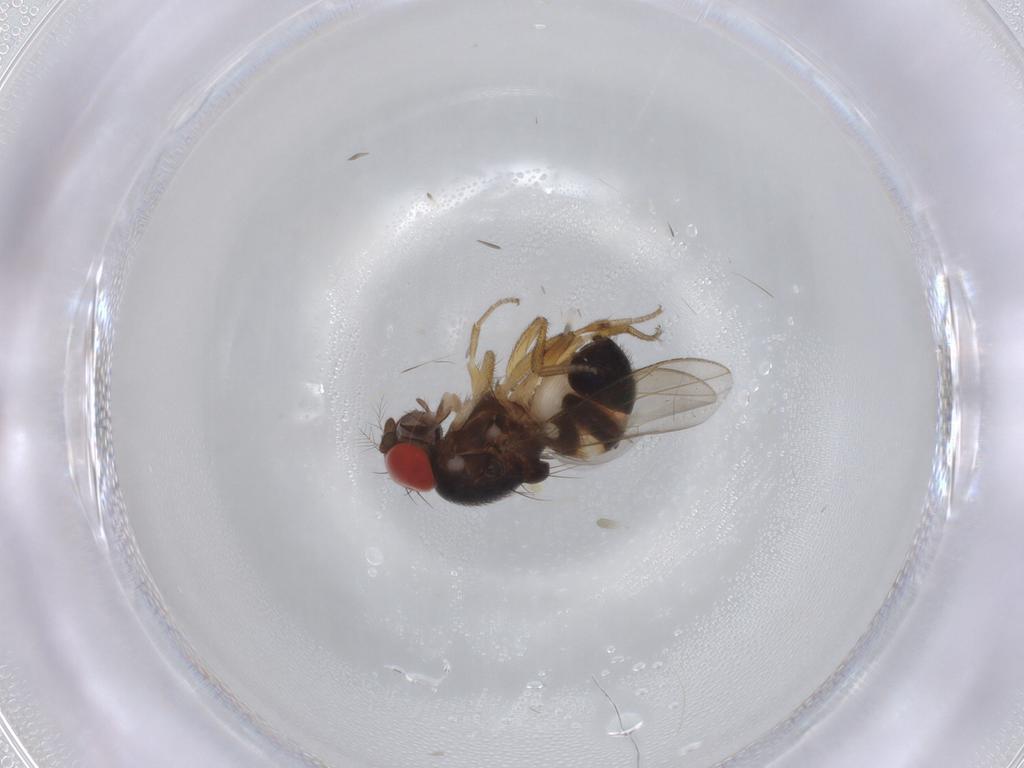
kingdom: Animalia
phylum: Arthropoda
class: Insecta
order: Diptera
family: Drosophilidae
